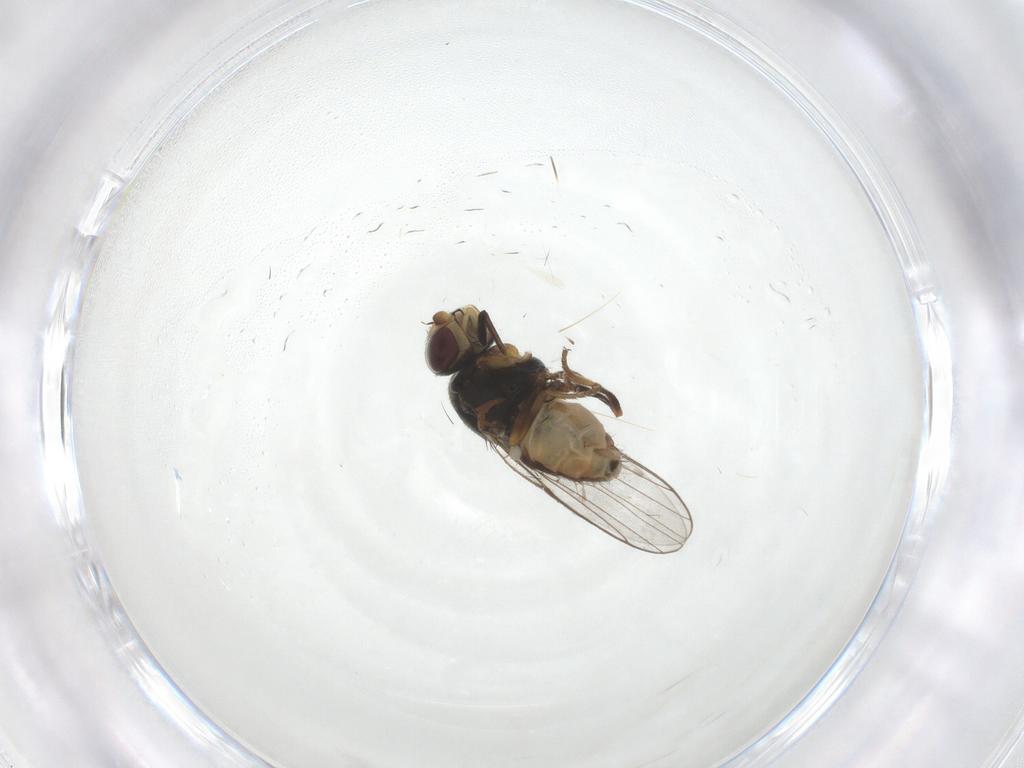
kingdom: Animalia
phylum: Arthropoda
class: Insecta
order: Diptera
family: Chloropidae
